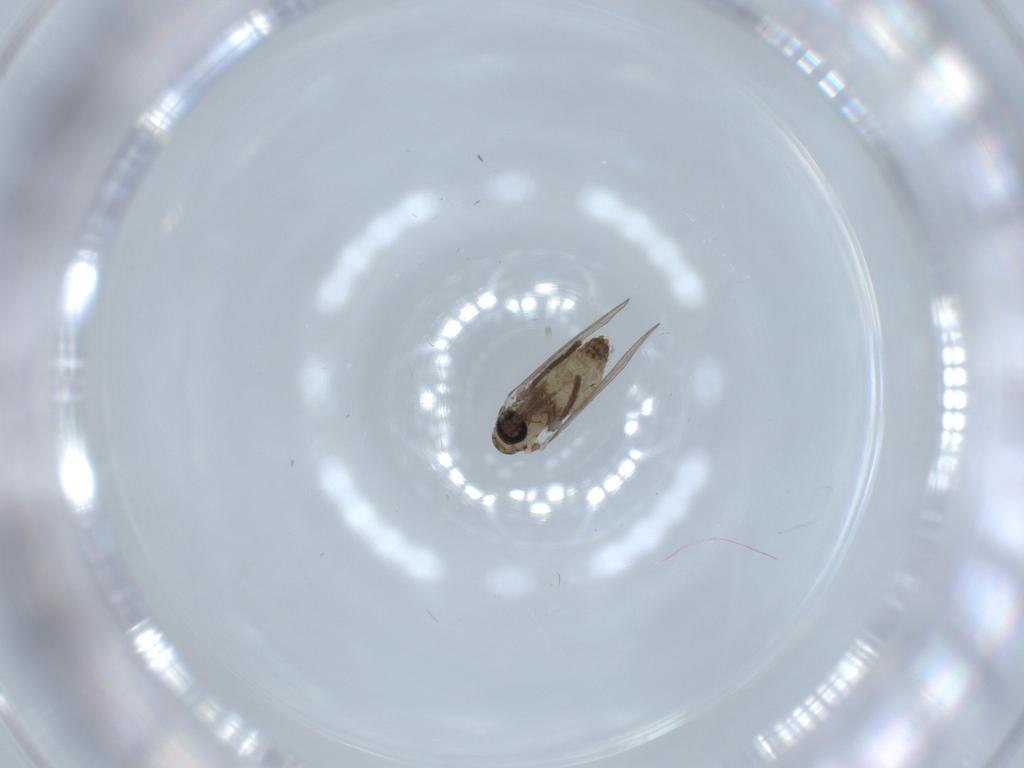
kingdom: Animalia
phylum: Arthropoda
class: Insecta
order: Diptera
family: Psychodidae
